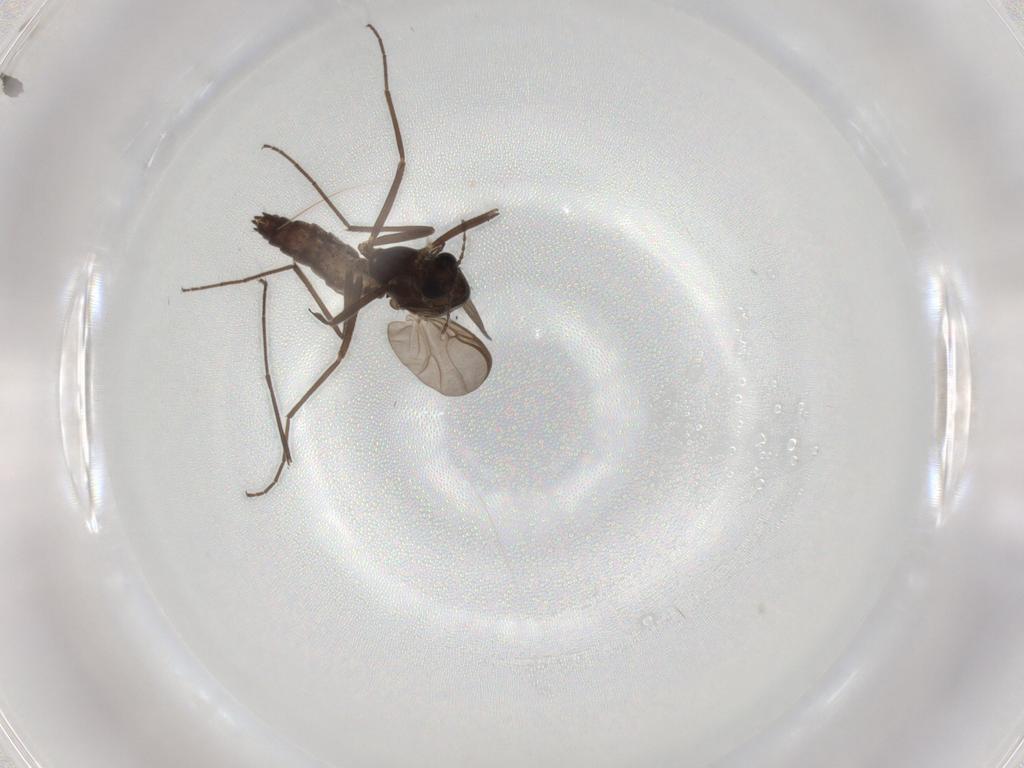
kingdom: Animalia
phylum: Arthropoda
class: Insecta
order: Diptera
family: Chironomidae
